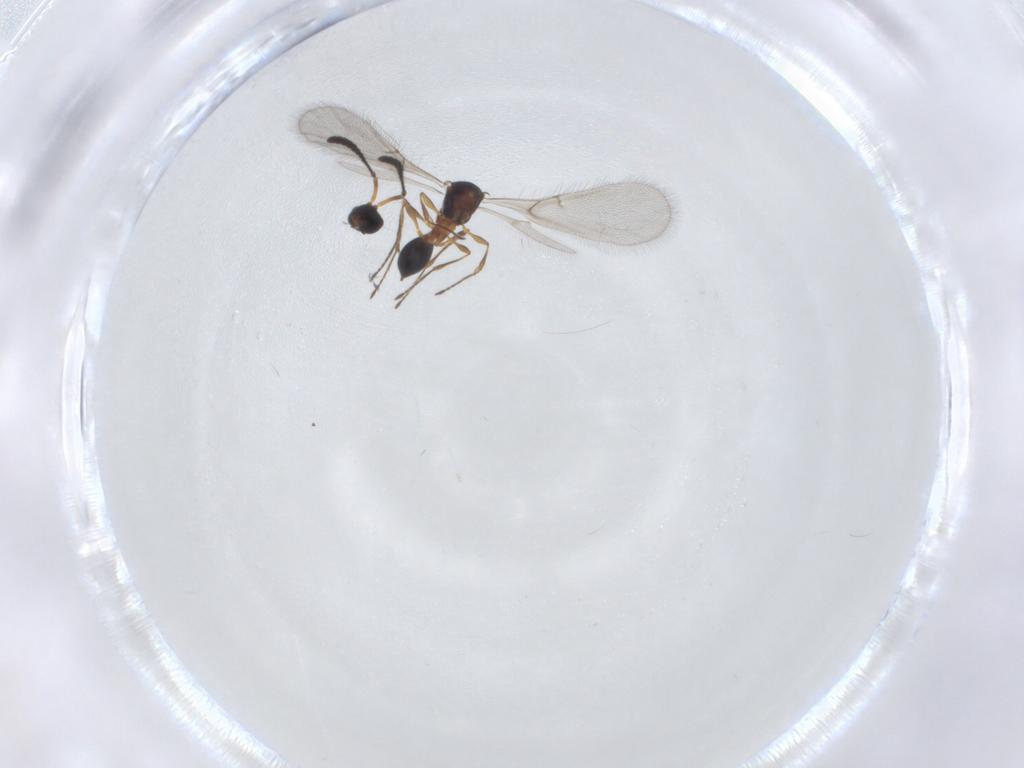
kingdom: Animalia
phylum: Arthropoda
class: Insecta
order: Hymenoptera
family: Diapriidae
